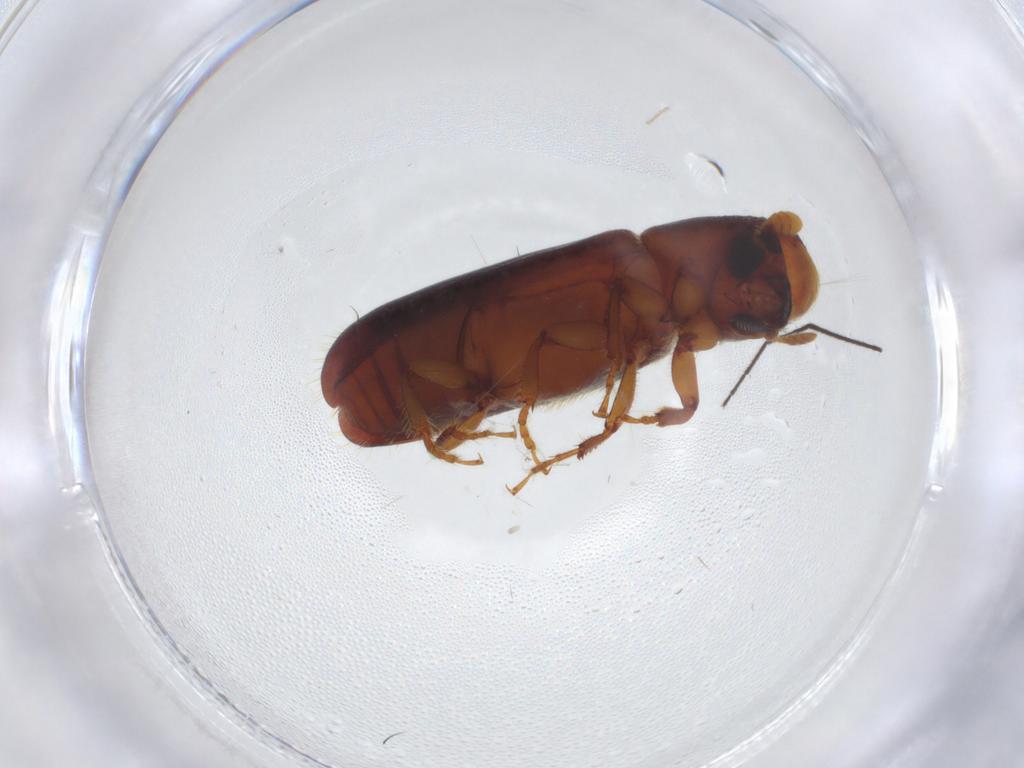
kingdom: Animalia
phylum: Arthropoda
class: Insecta
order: Coleoptera
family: Curculionidae
